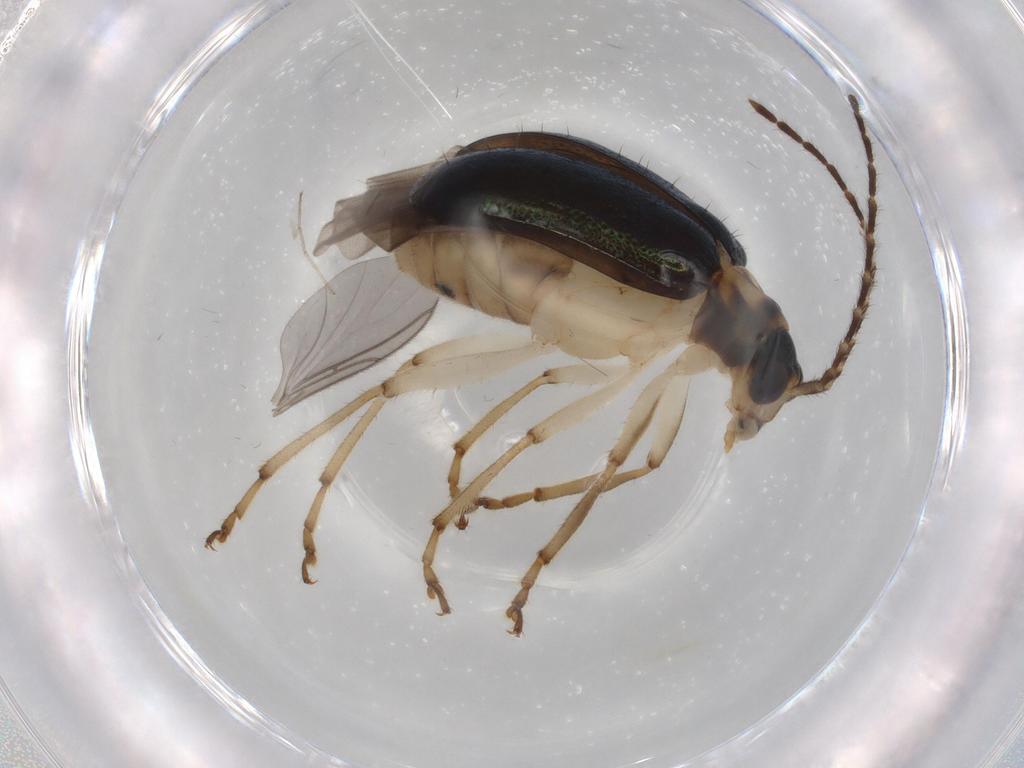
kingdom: Animalia
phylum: Arthropoda
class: Insecta
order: Coleoptera
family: Chrysomelidae
